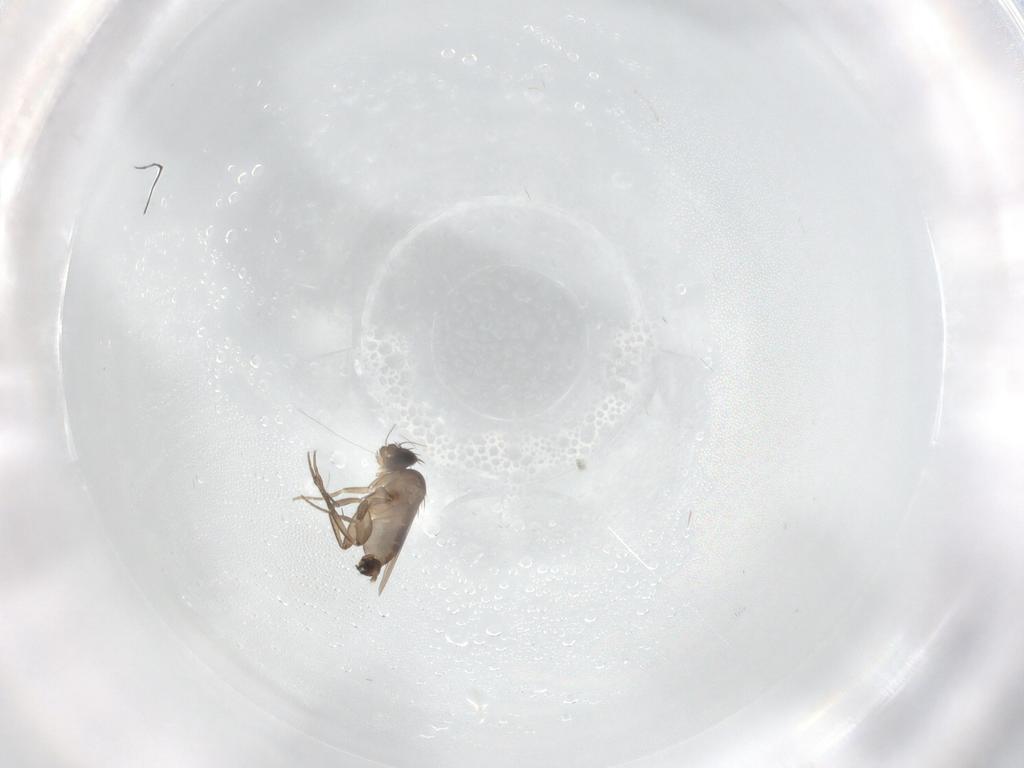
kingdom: Animalia
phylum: Arthropoda
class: Insecta
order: Diptera
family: Phoridae
